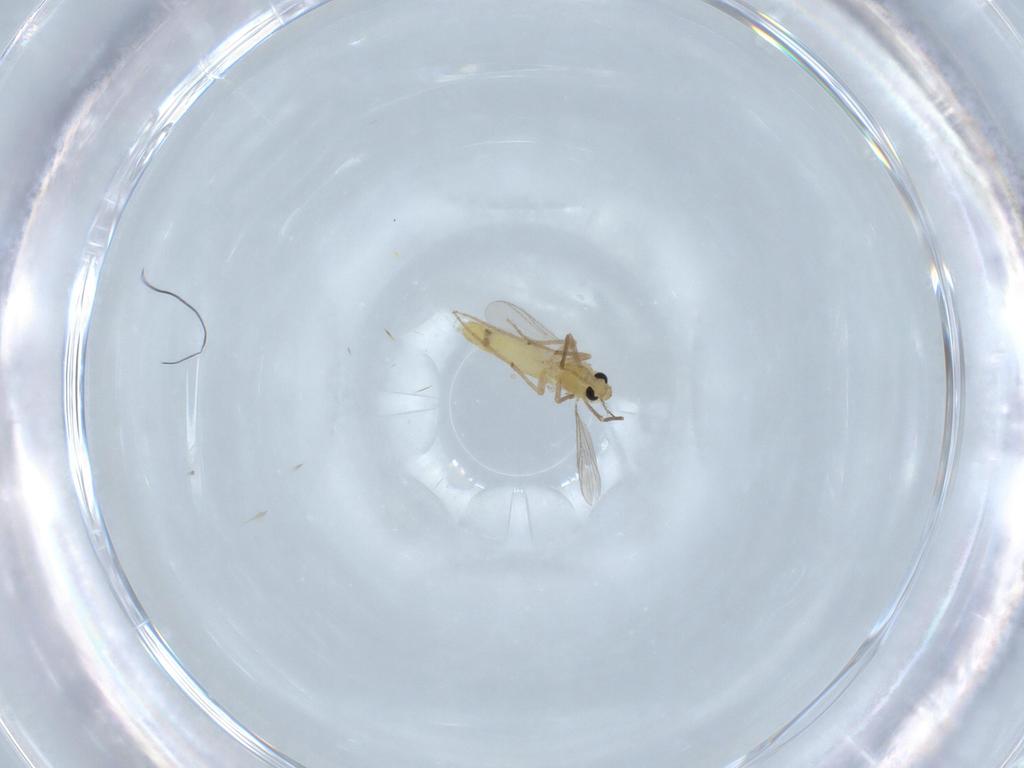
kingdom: Animalia
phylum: Arthropoda
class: Insecta
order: Diptera
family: Chironomidae
